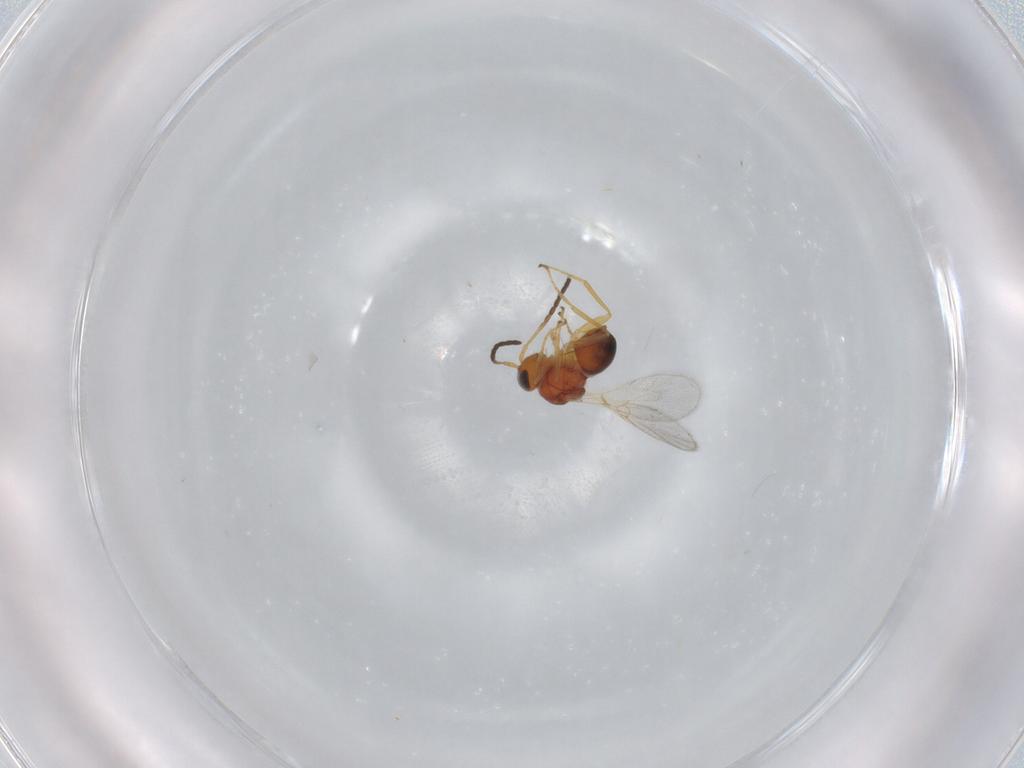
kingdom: Animalia
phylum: Arthropoda
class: Insecta
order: Hymenoptera
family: Figitidae
